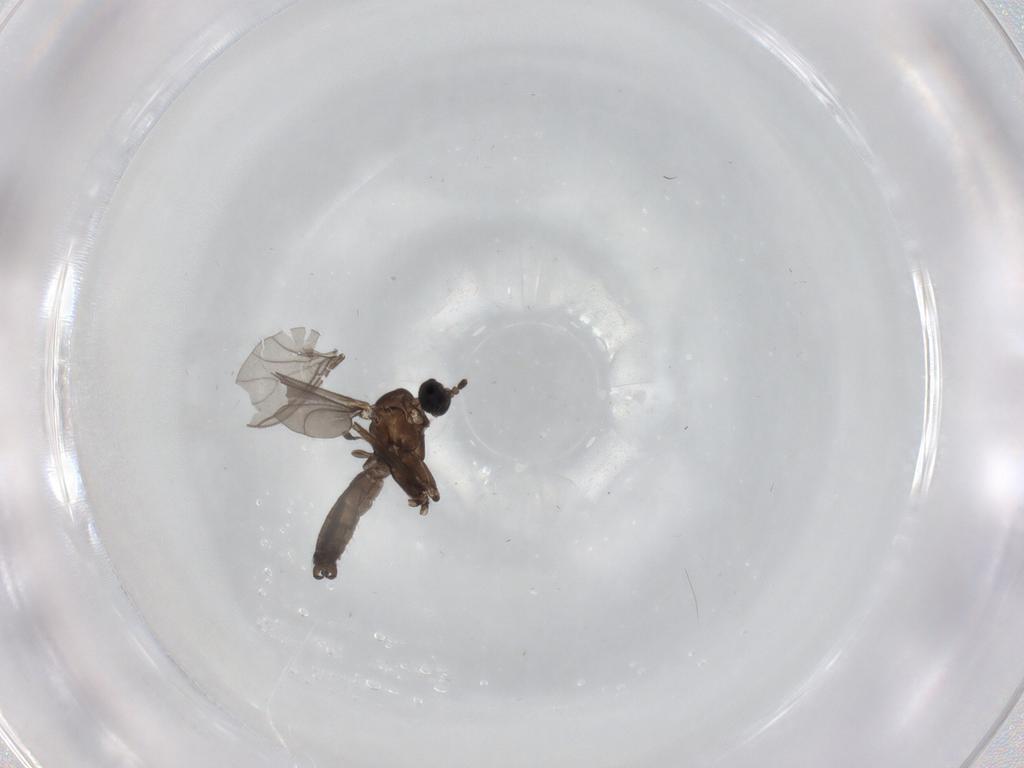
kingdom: Animalia
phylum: Arthropoda
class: Insecta
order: Diptera
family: Sciaridae
